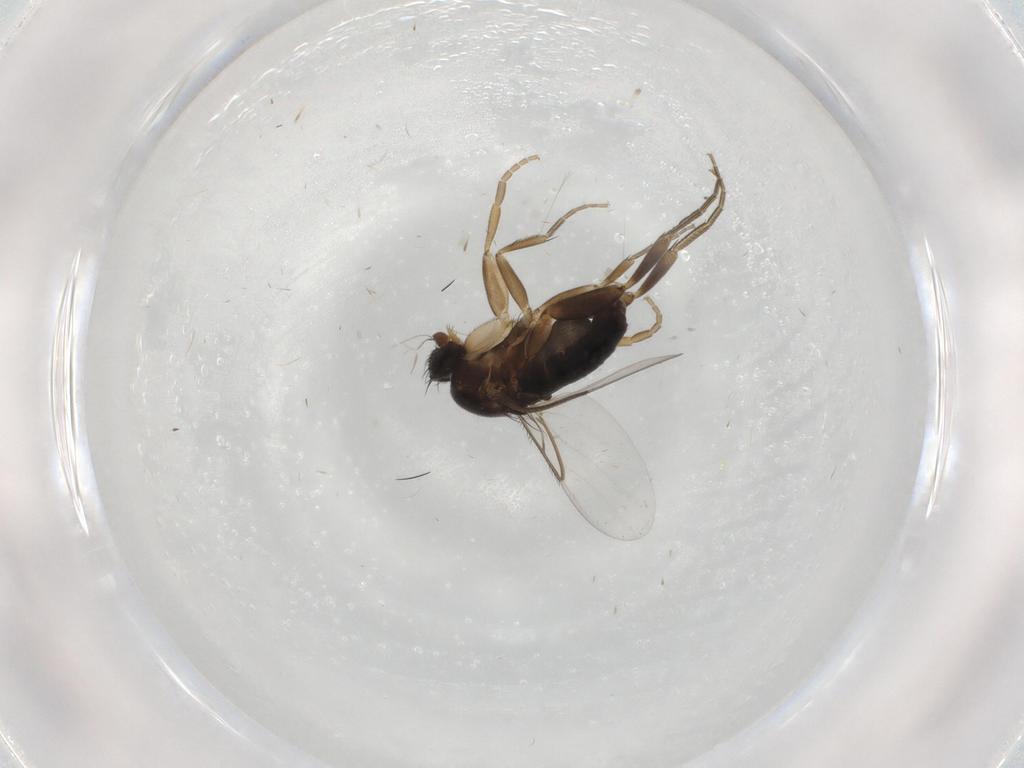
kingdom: Animalia
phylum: Arthropoda
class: Insecta
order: Diptera
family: Phoridae
